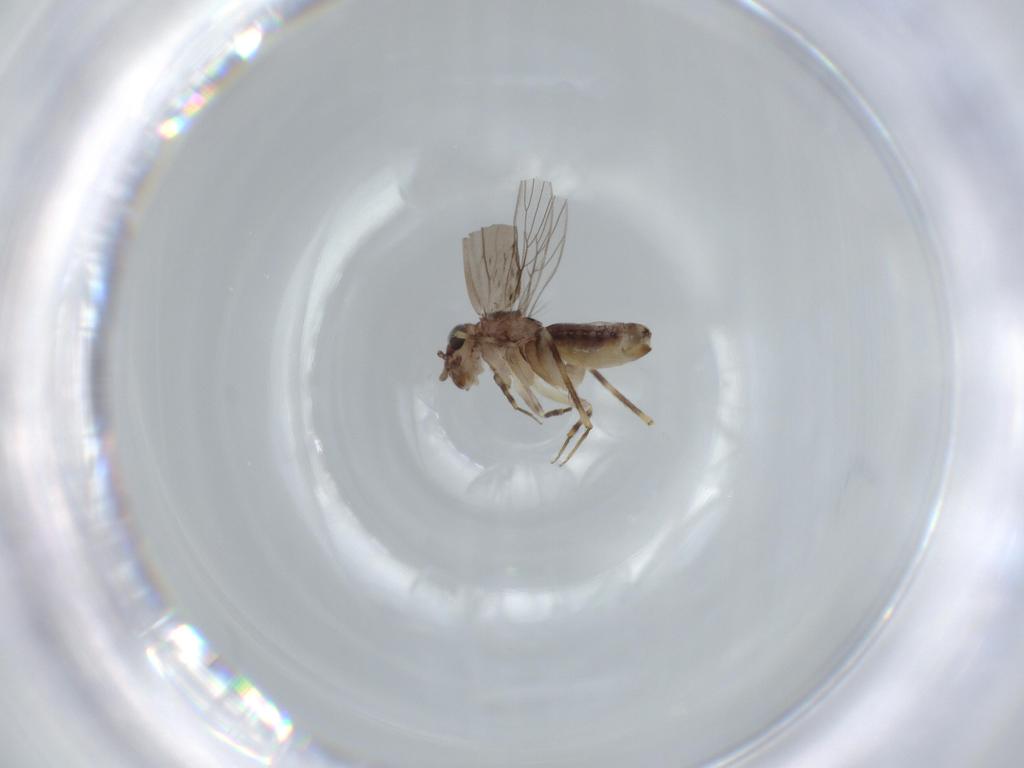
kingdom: Animalia
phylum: Arthropoda
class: Insecta
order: Psocodea
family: Lepidopsocidae
